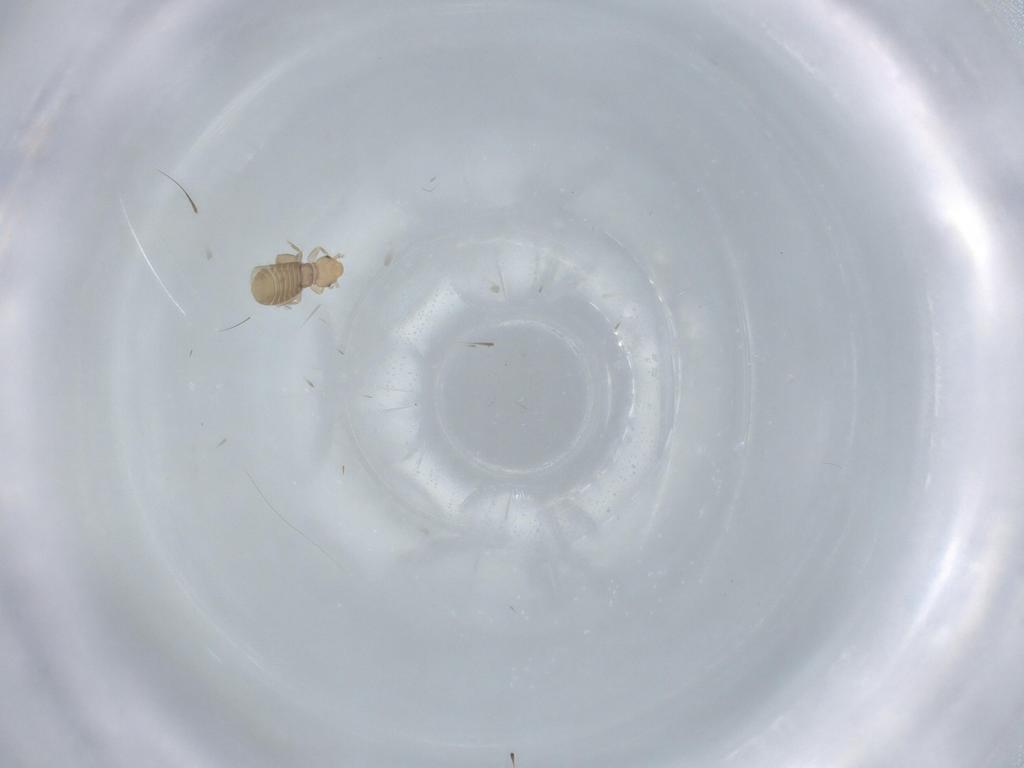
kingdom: Animalia
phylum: Arthropoda
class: Insecta
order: Psocodea
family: Liposcelididae
